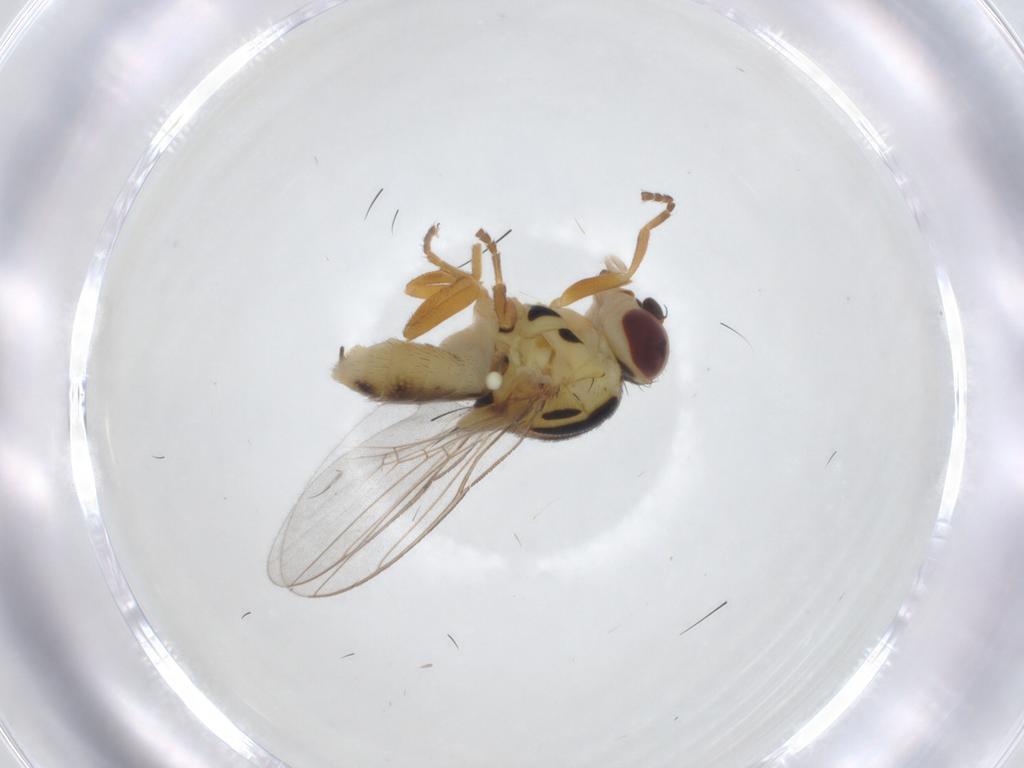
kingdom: Animalia
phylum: Arthropoda
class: Insecta
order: Diptera
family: Chloropidae
